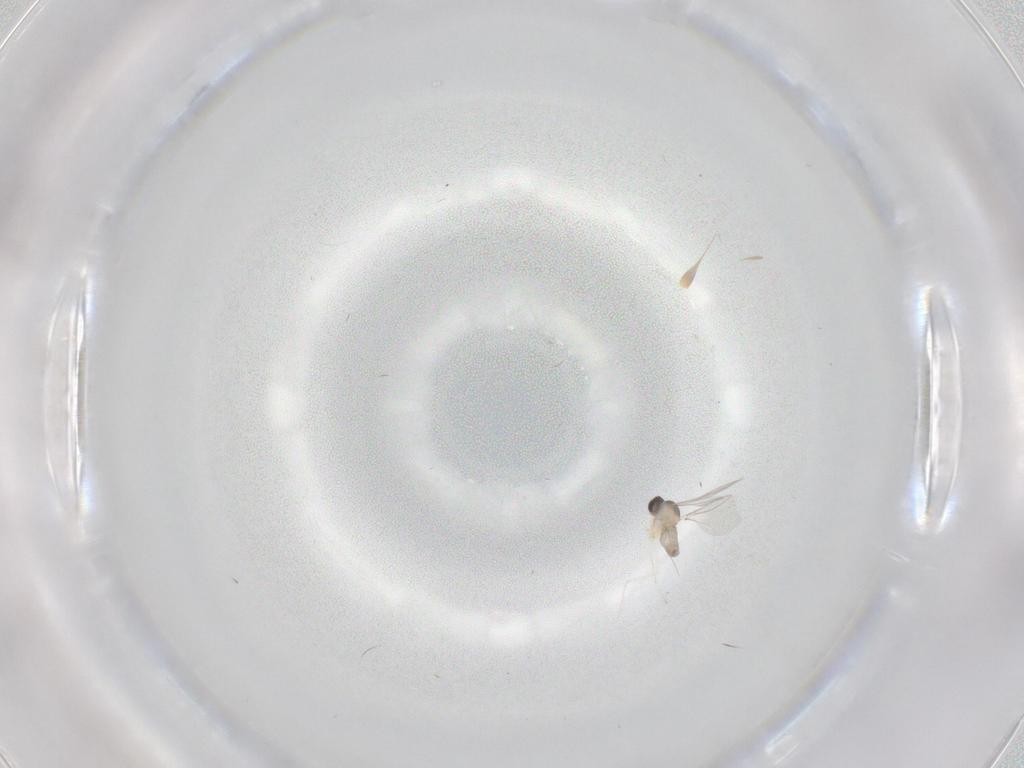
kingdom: Animalia
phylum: Arthropoda
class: Insecta
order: Diptera
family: Cecidomyiidae
